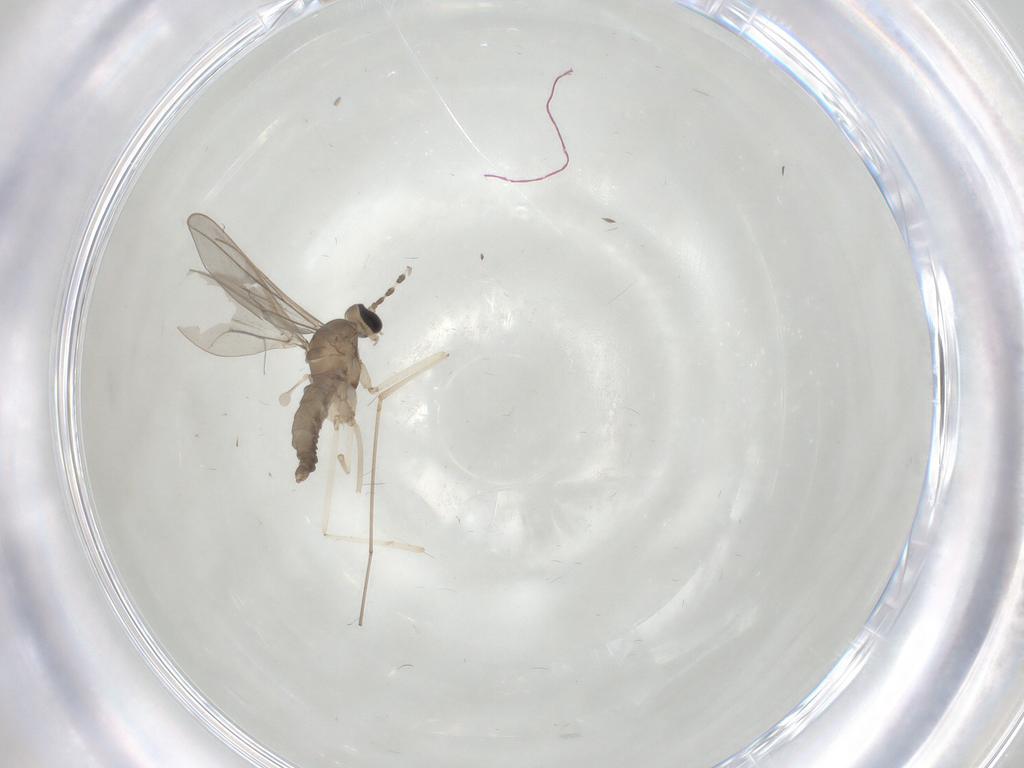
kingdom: Animalia
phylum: Arthropoda
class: Insecta
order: Diptera
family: Cecidomyiidae
